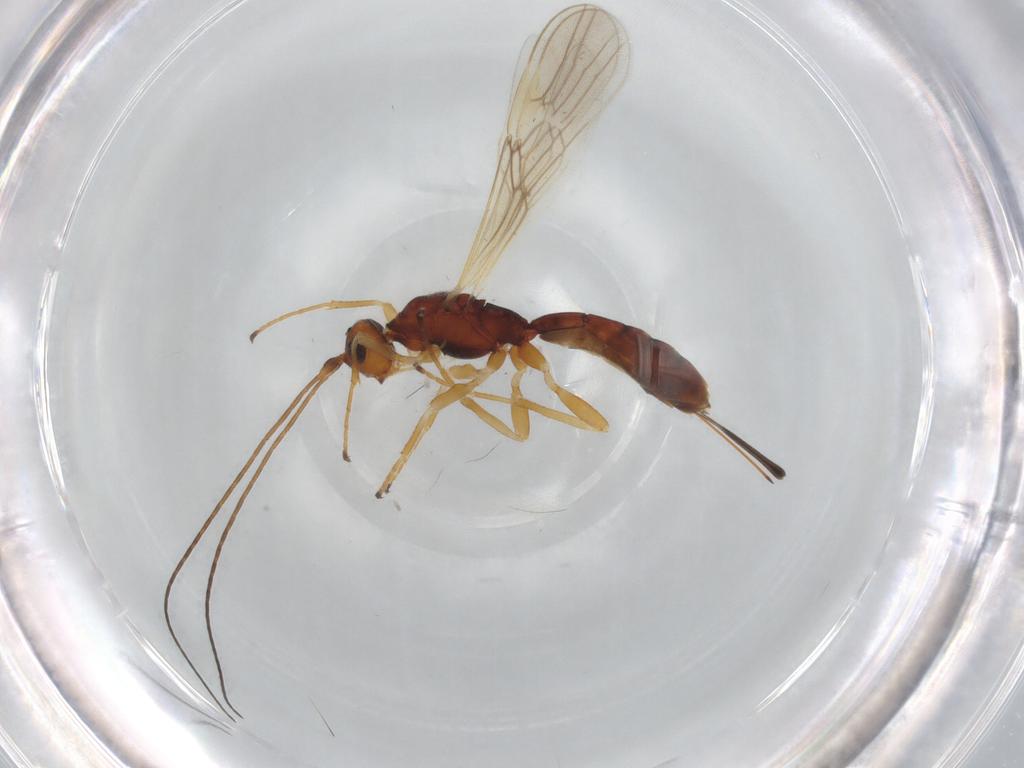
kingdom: Animalia
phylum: Arthropoda
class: Insecta
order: Hymenoptera
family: Braconidae
